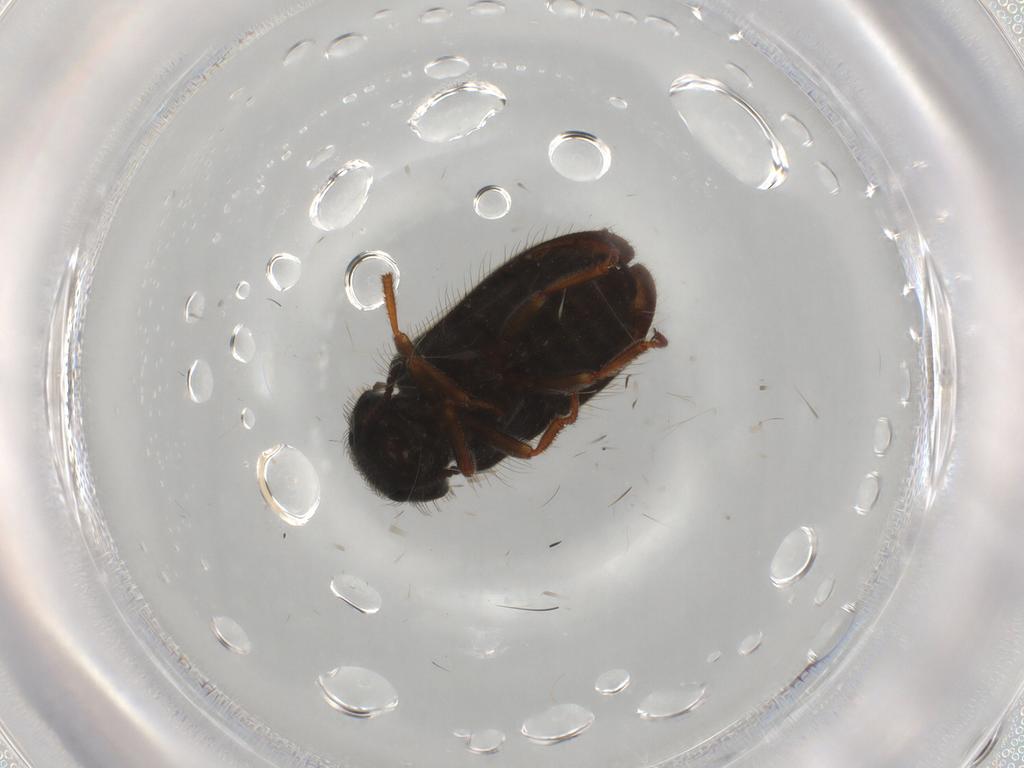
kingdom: Animalia
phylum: Arthropoda
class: Insecta
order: Coleoptera
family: Melyridae
